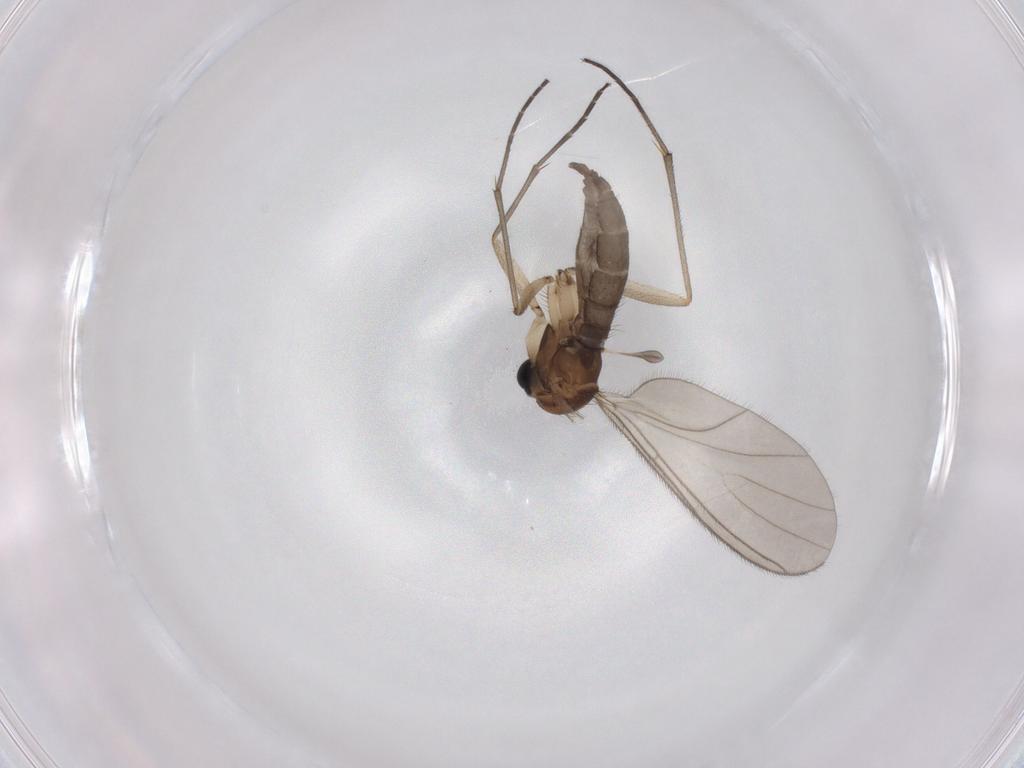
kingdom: Animalia
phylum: Arthropoda
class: Insecta
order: Diptera
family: Sciaridae
